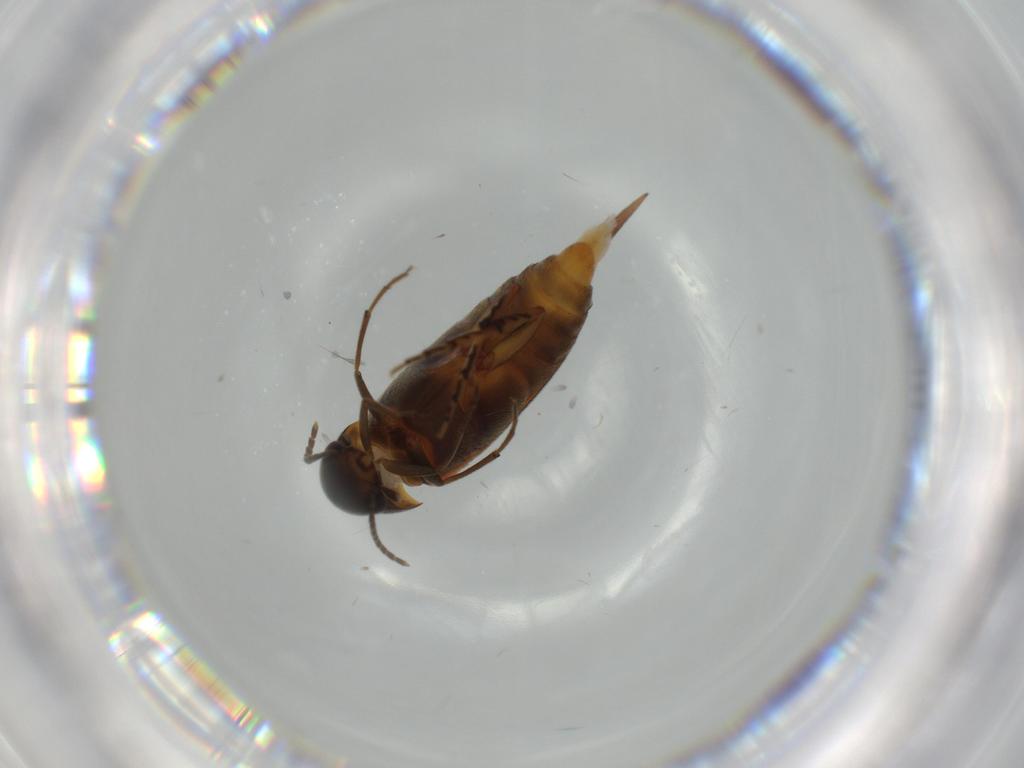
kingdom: Animalia
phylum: Arthropoda
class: Insecta
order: Coleoptera
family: Mordellidae
